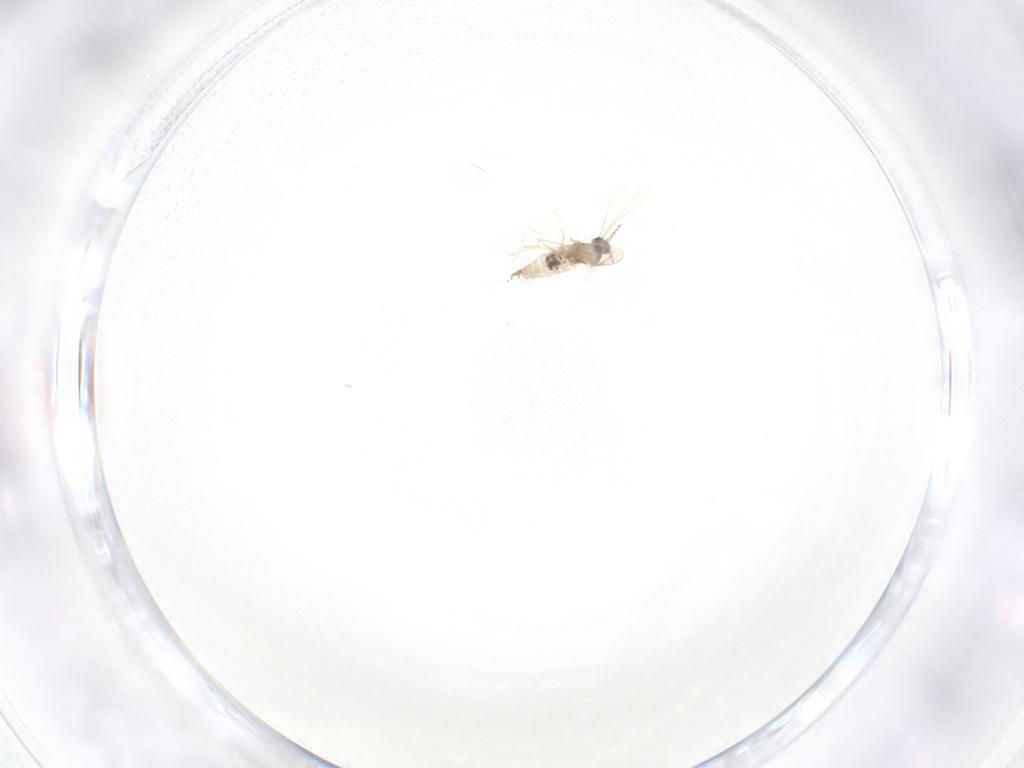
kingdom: Animalia
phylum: Arthropoda
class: Insecta
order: Diptera
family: Cecidomyiidae
